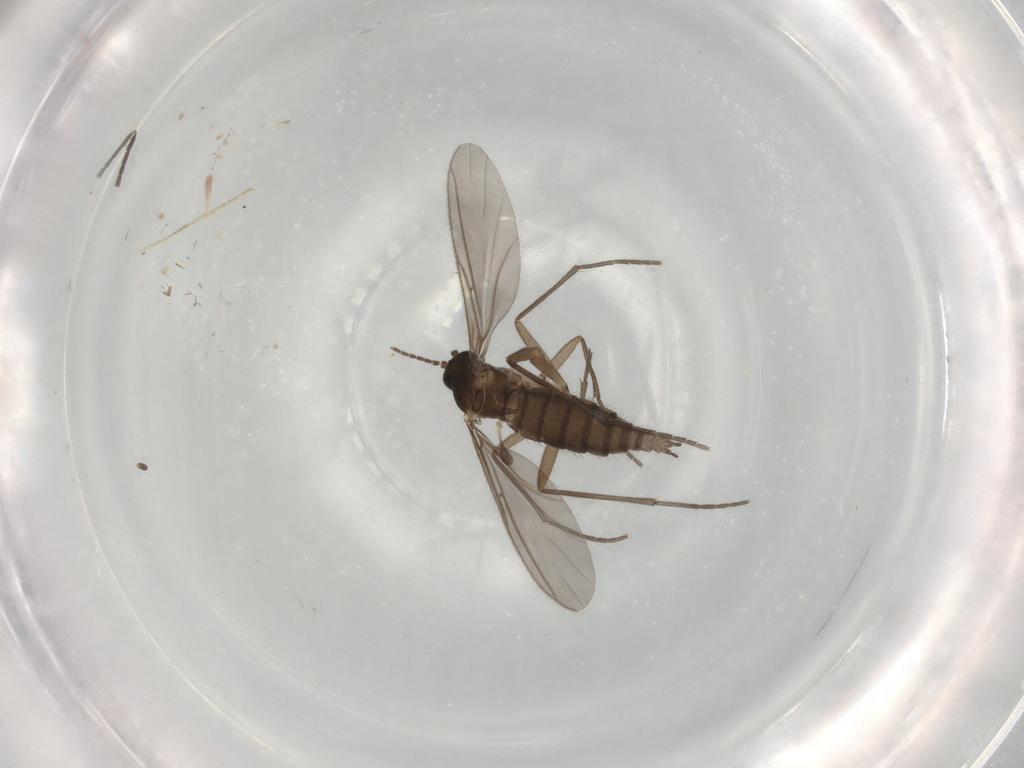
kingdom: Animalia
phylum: Arthropoda
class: Insecta
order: Diptera
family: Sciaridae
